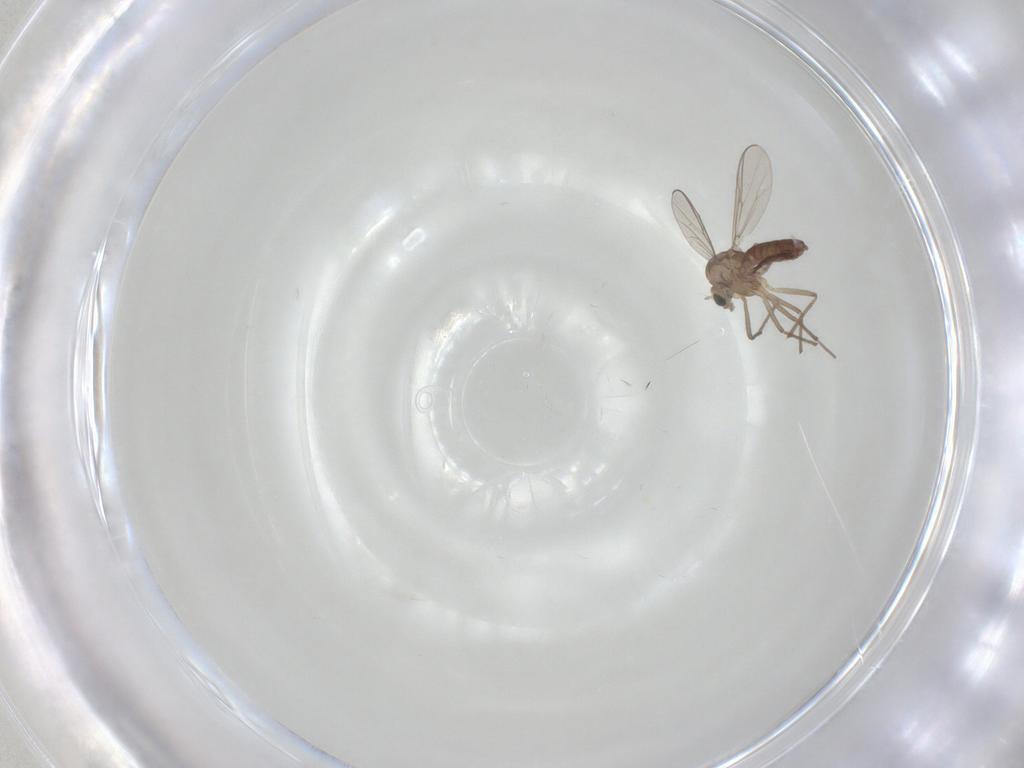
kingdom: Animalia
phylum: Arthropoda
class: Insecta
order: Diptera
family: Chironomidae
